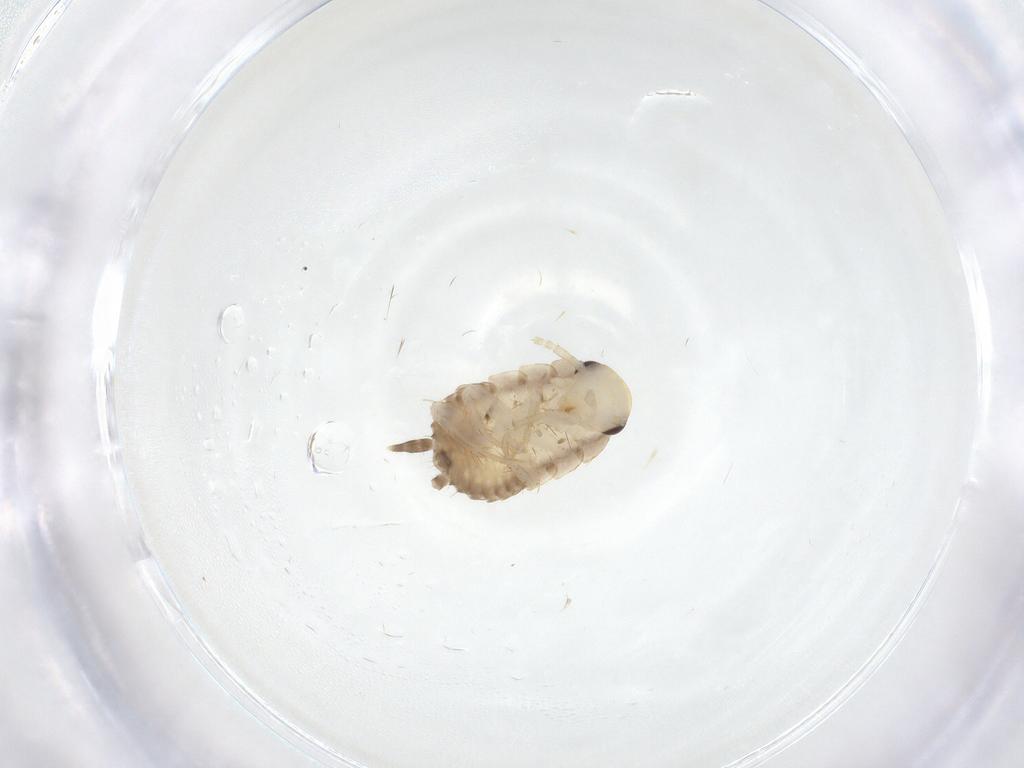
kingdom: Animalia
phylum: Arthropoda
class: Insecta
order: Blattodea
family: Ectobiidae
